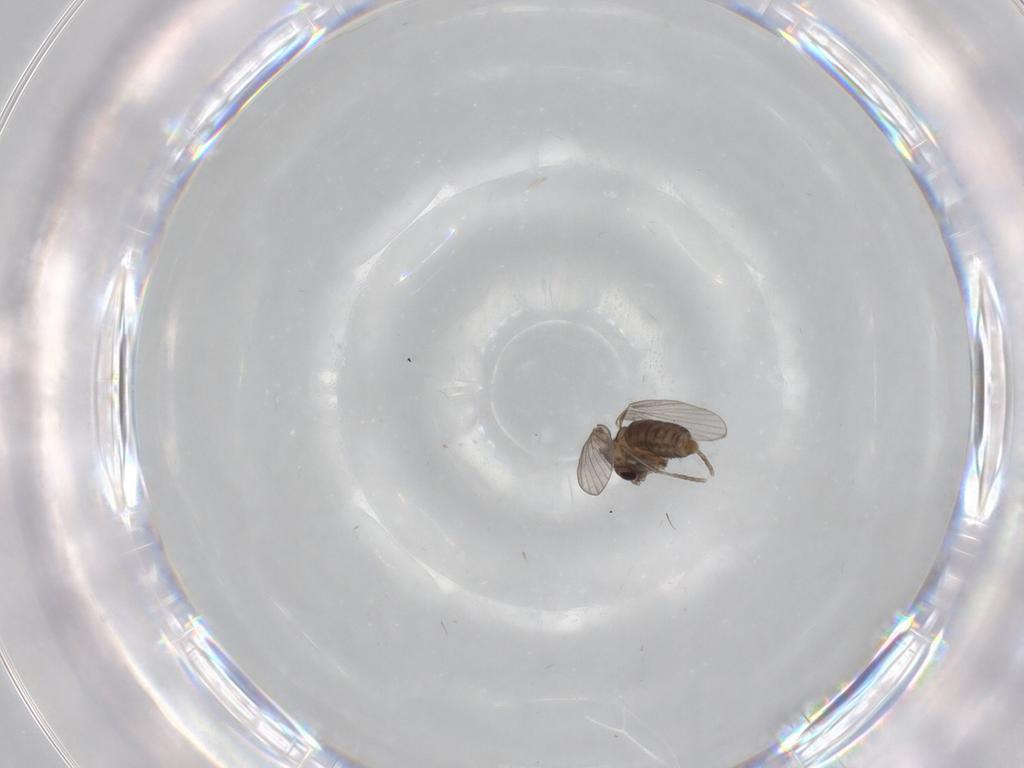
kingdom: Animalia
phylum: Arthropoda
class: Insecta
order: Diptera
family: Cecidomyiidae
